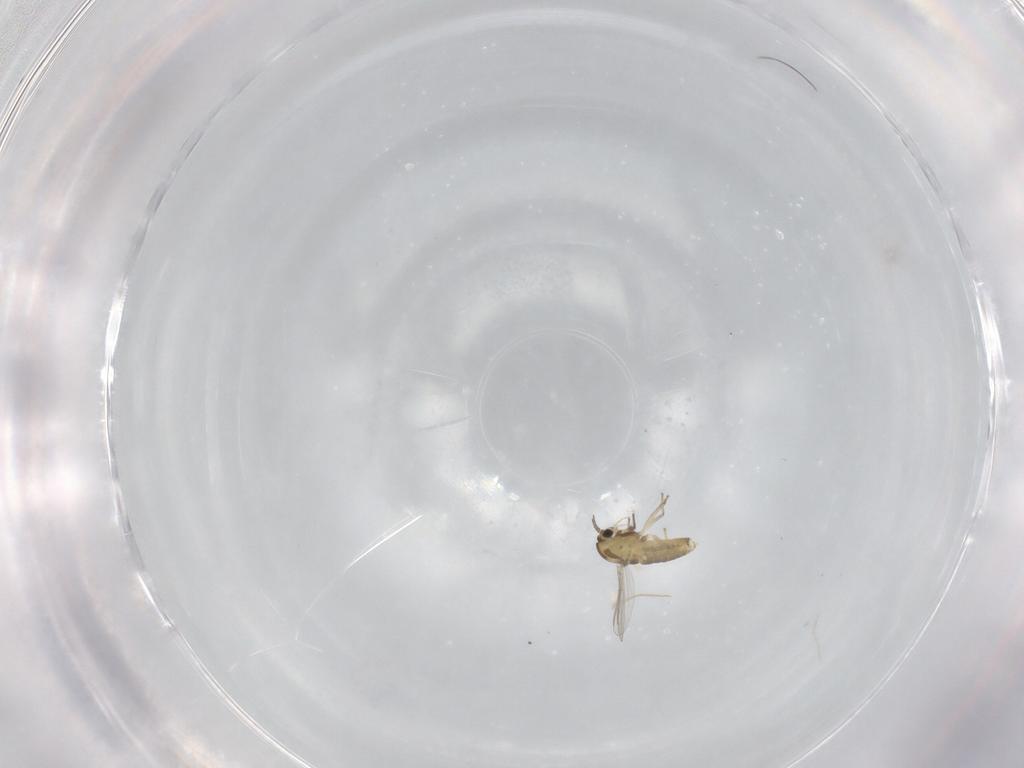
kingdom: Animalia
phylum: Arthropoda
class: Insecta
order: Diptera
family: Chironomidae
